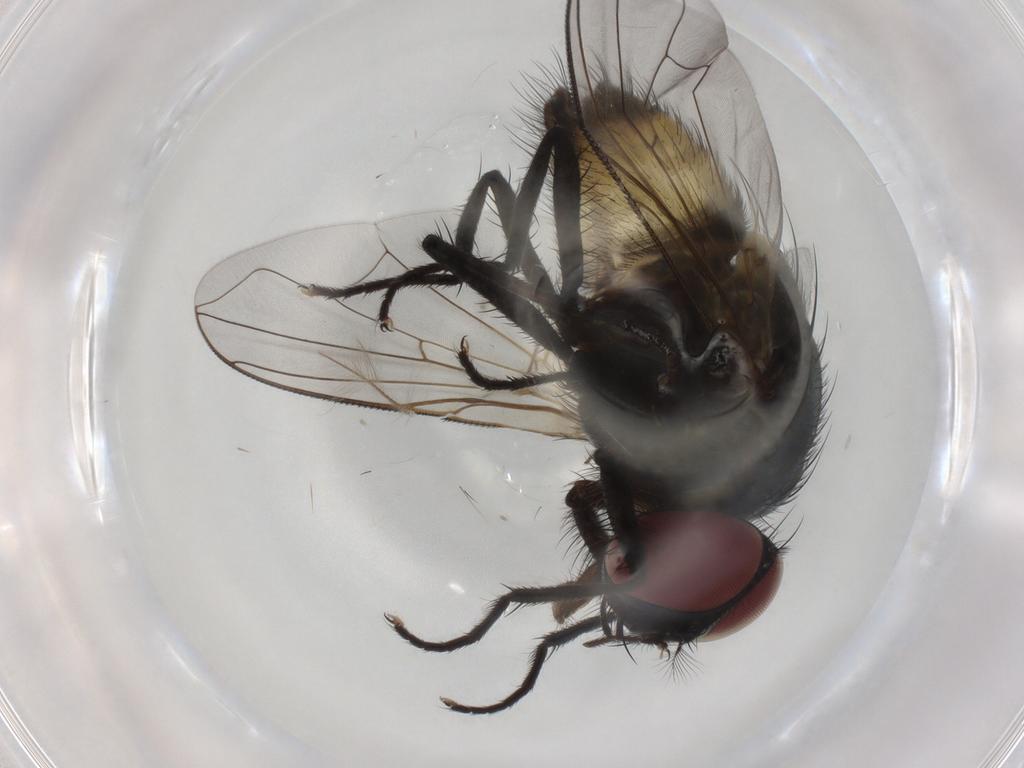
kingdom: Animalia
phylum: Arthropoda
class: Insecta
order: Diptera
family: Muscidae
